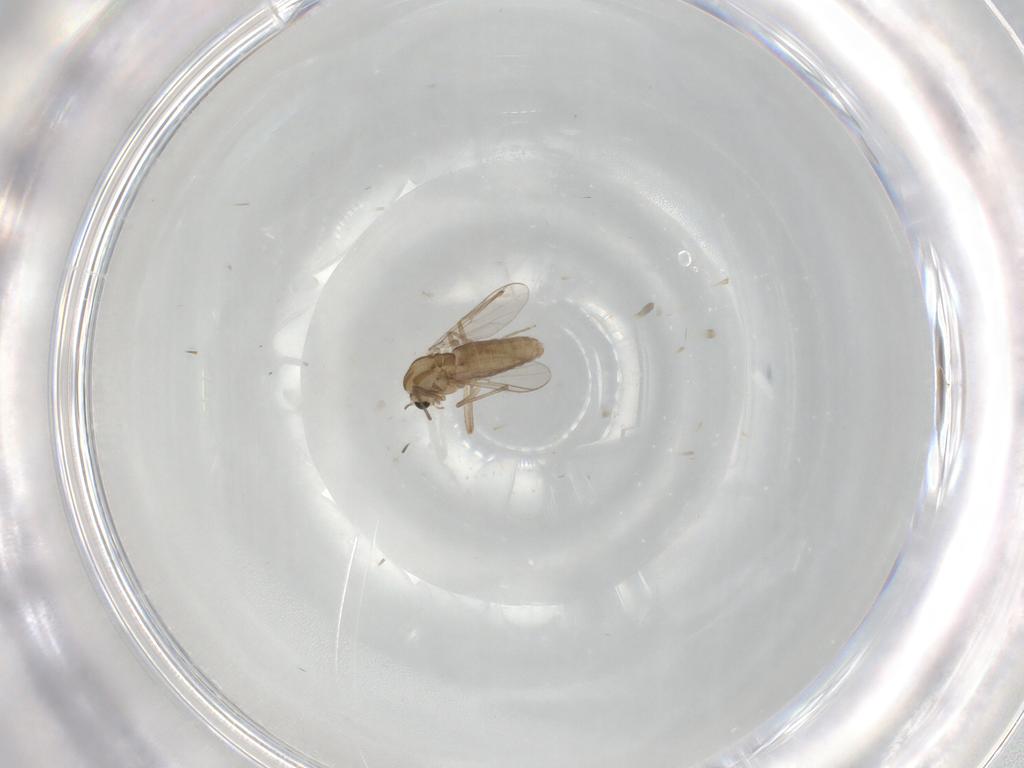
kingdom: Animalia
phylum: Arthropoda
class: Insecta
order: Diptera
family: Chironomidae
